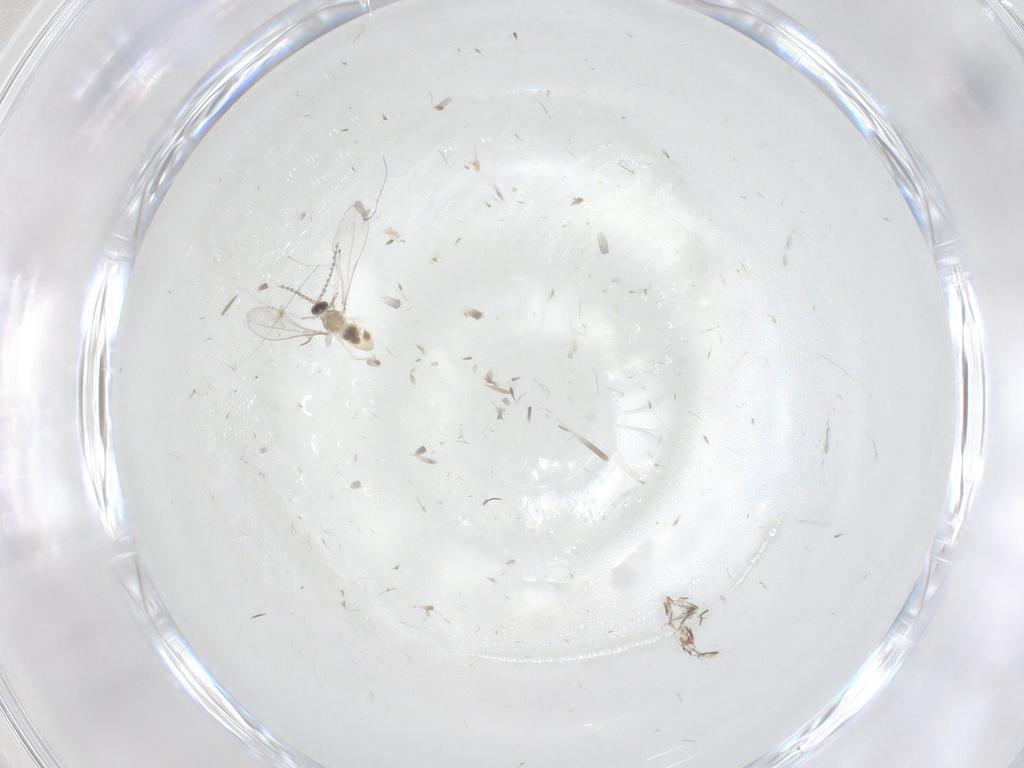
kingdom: Animalia
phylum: Arthropoda
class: Insecta
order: Diptera
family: Cecidomyiidae
